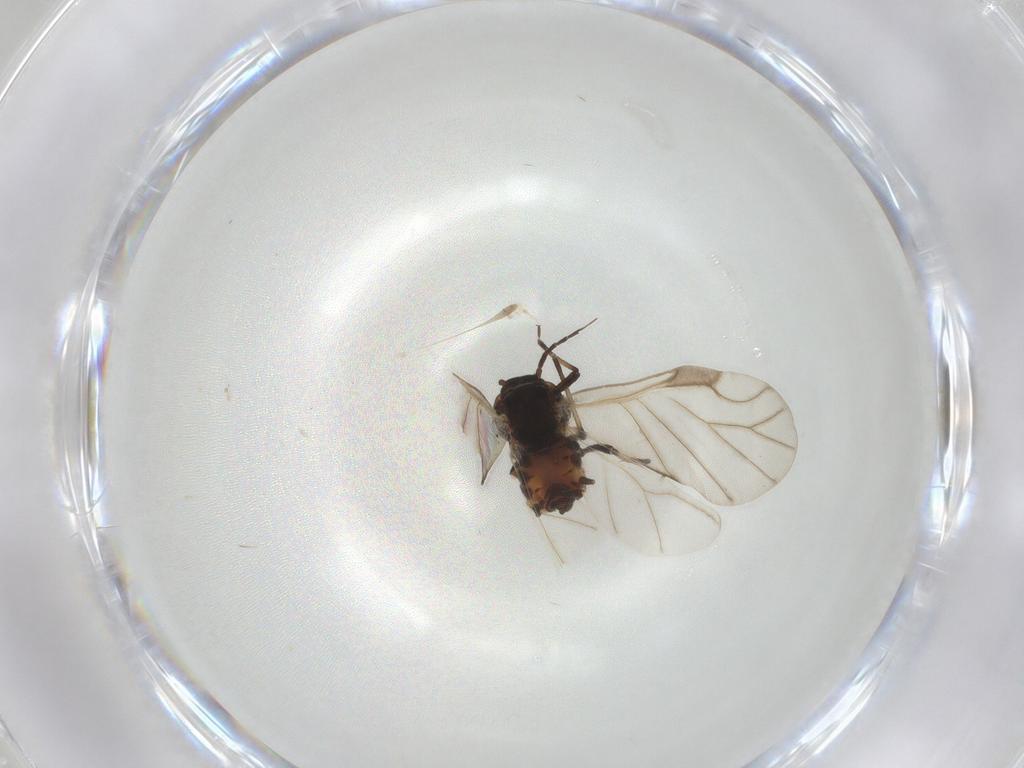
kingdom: Animalia
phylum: Arthropoda
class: Insecta
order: Hemiptera
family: Aphididae
